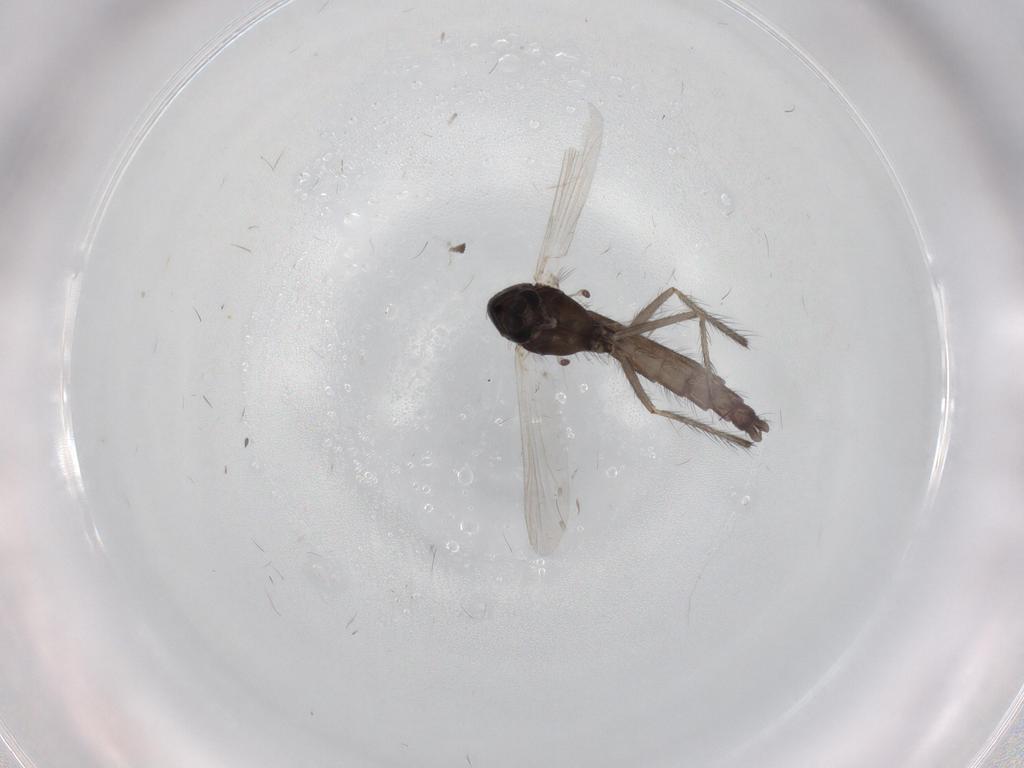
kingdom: Animalia
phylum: Arthropoda
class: Insecta
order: Diptera
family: Chironomidae
